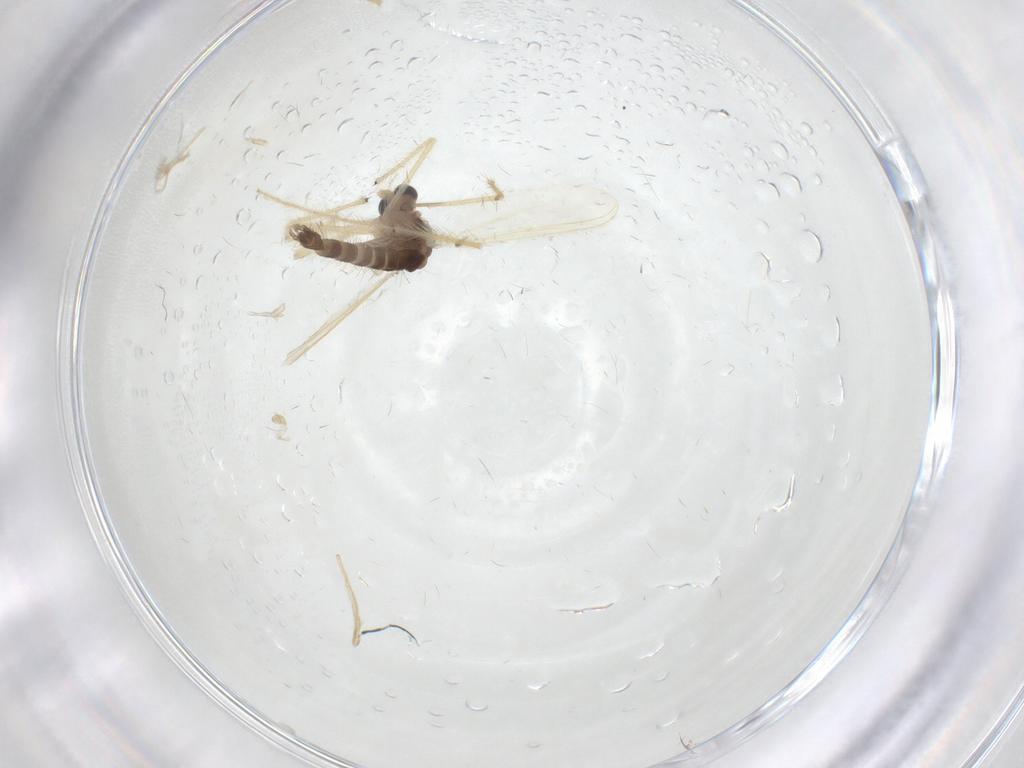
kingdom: Animalia
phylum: Arthropoda
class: Insecta
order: Diptera
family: Chironomidae
